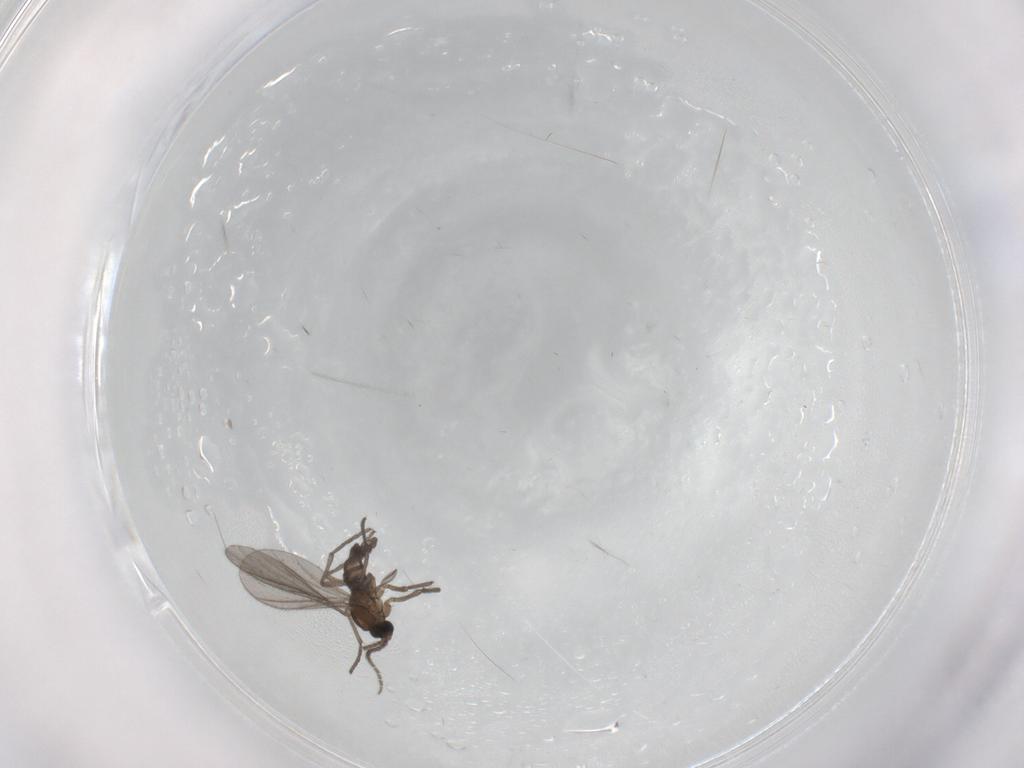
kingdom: Animalia
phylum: Arthropoda
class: Insecta
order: Diptera
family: Sciaridae
